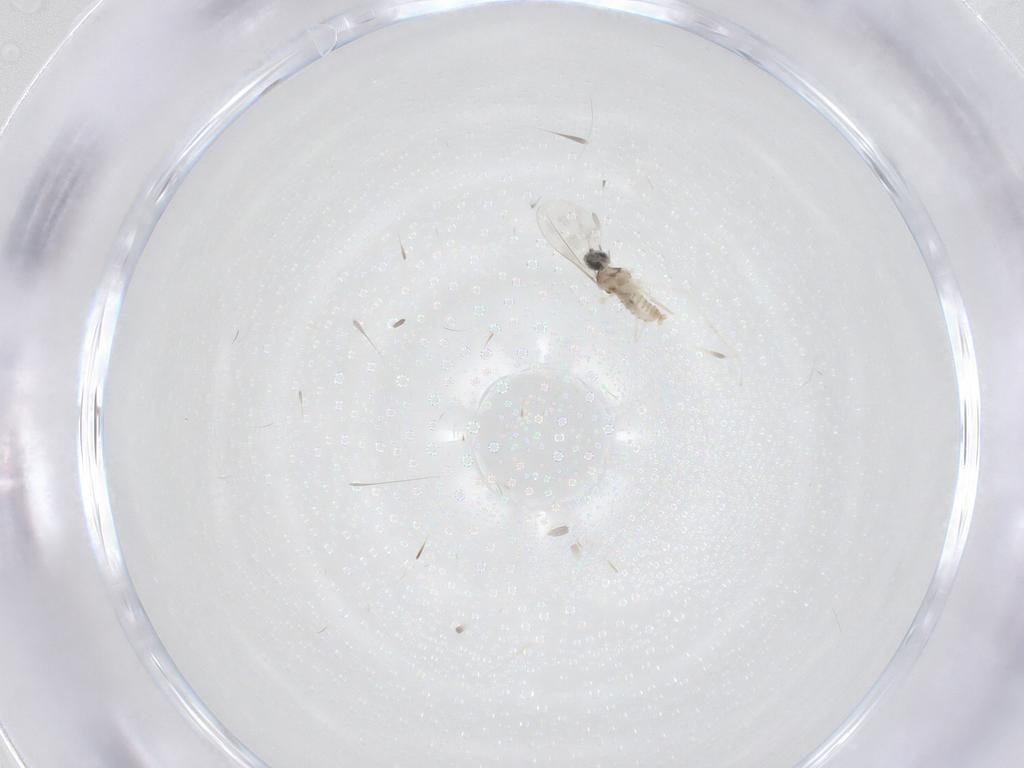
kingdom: Animalia
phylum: Arthropoda
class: Insecta
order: Diptera
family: Cecidomyiidae
